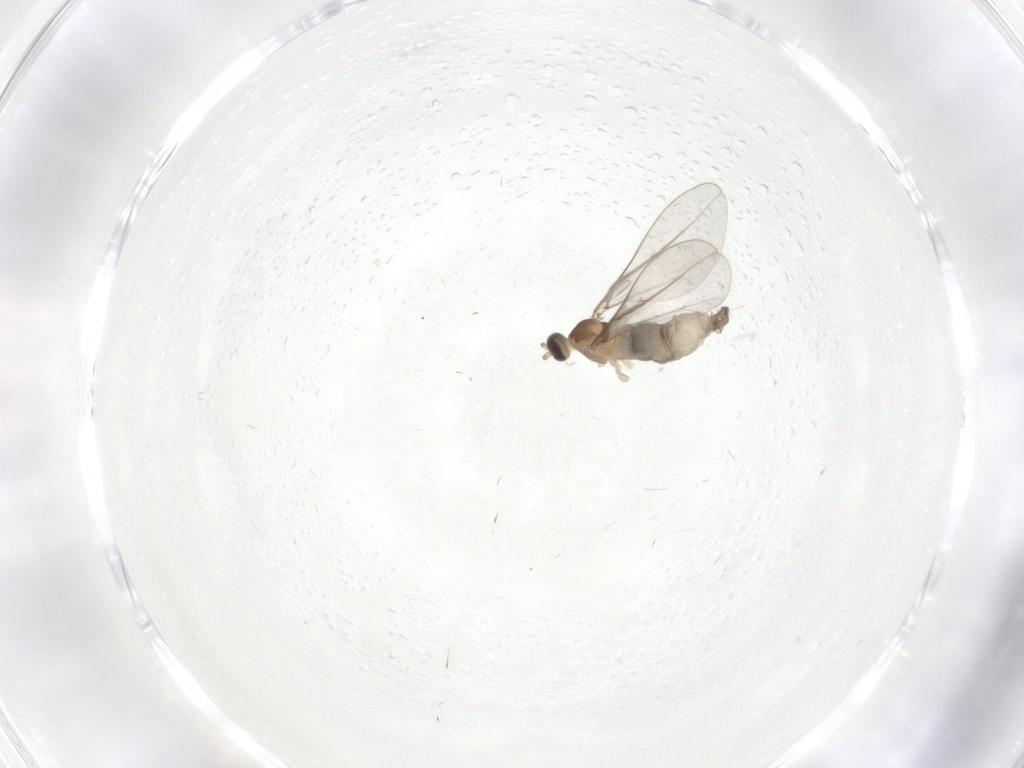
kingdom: Animalia
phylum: Arthropoda
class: Insecta
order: Diptera
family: Cecidomyiidae
